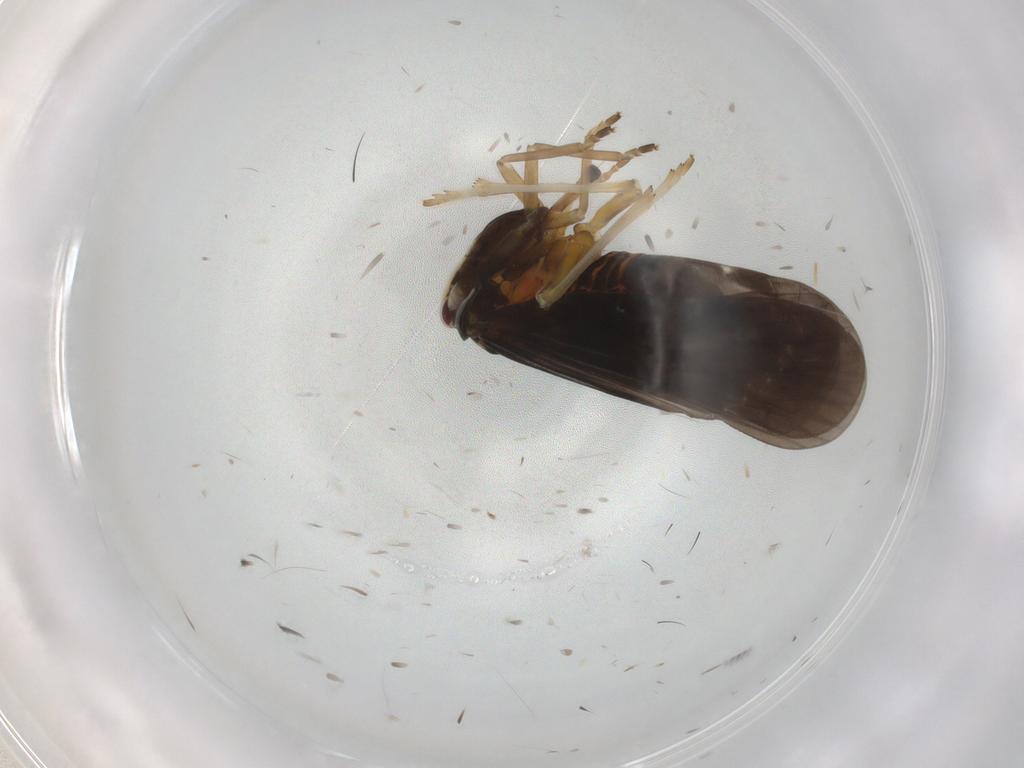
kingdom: Animalia
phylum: Arthropoda
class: Insecta
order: Hemiptera
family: Derbidae
